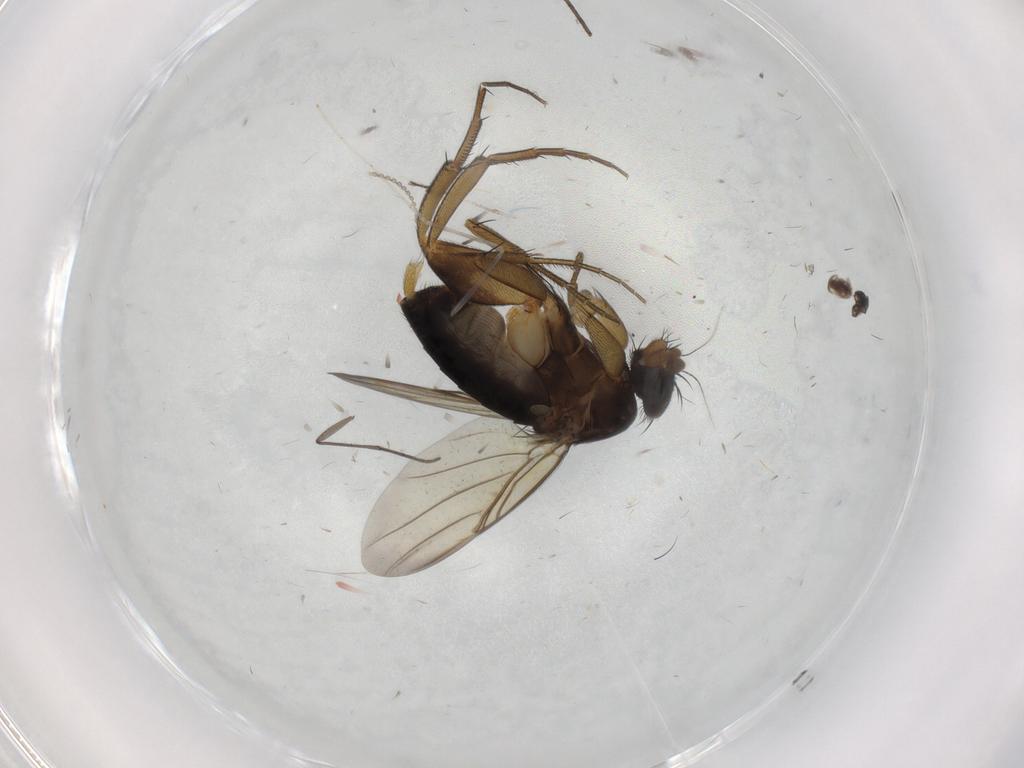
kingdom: Animalia
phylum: Arthropoda
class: Insecta
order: Diptera
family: Phoridae
